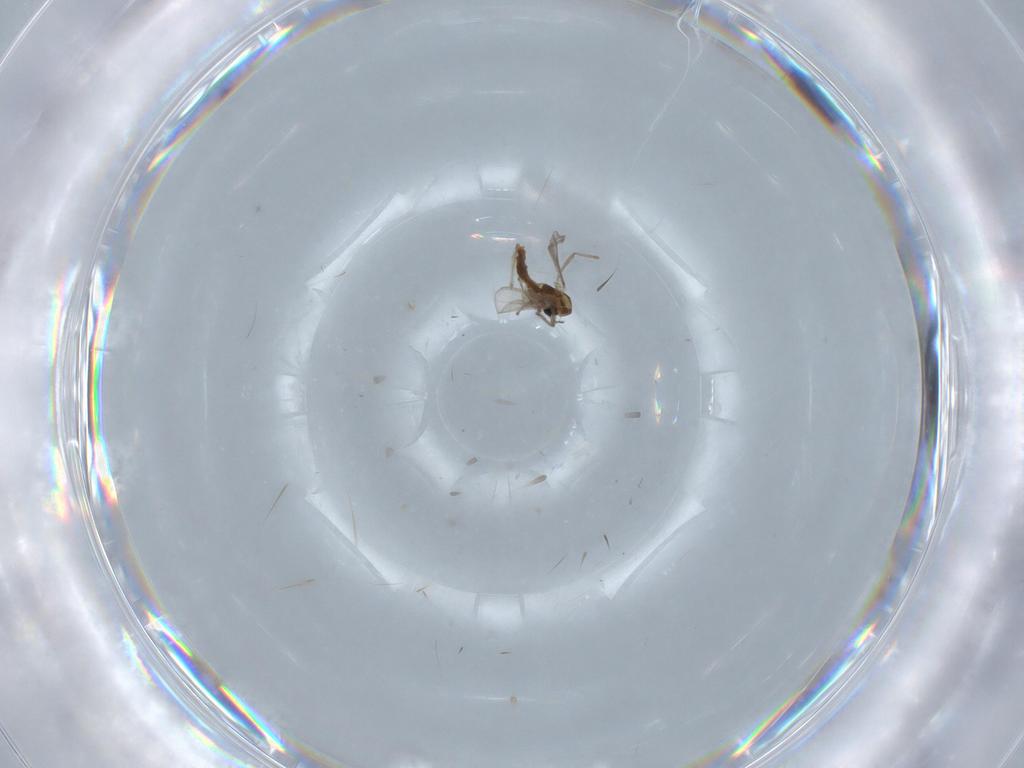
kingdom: Animalia
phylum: Arthropoda
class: Insecta
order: Diptera
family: Chironomidae
